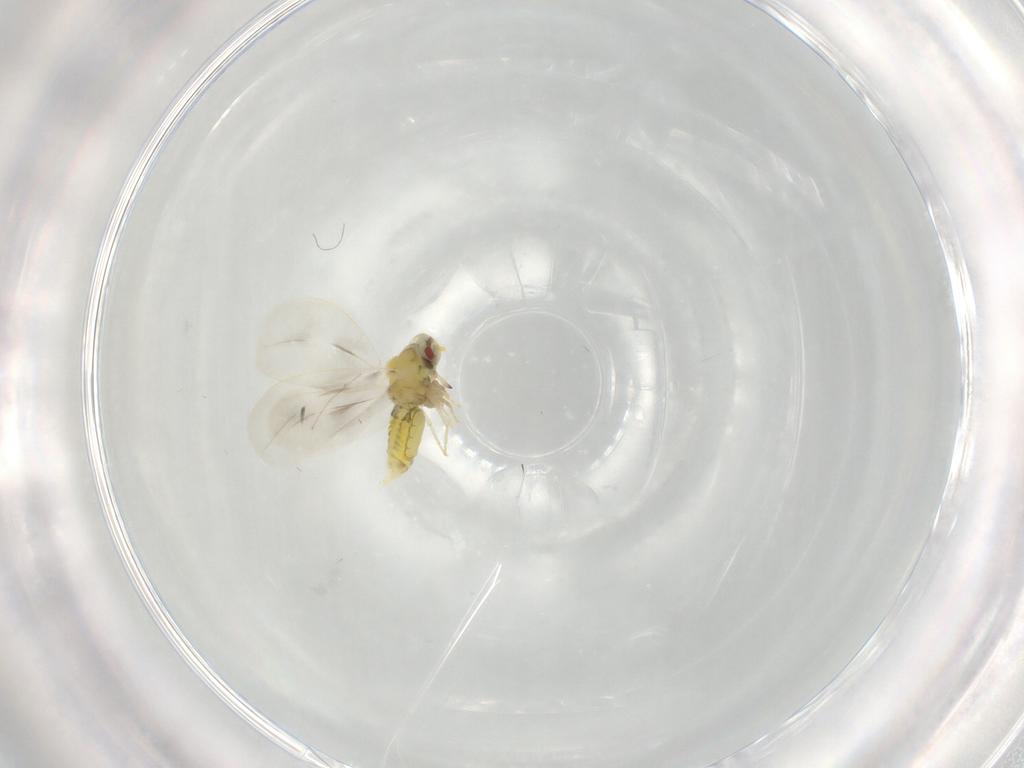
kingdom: Animalia
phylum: Arthropoda
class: Insecta
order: Hemiptera
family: Aleyrodidae
